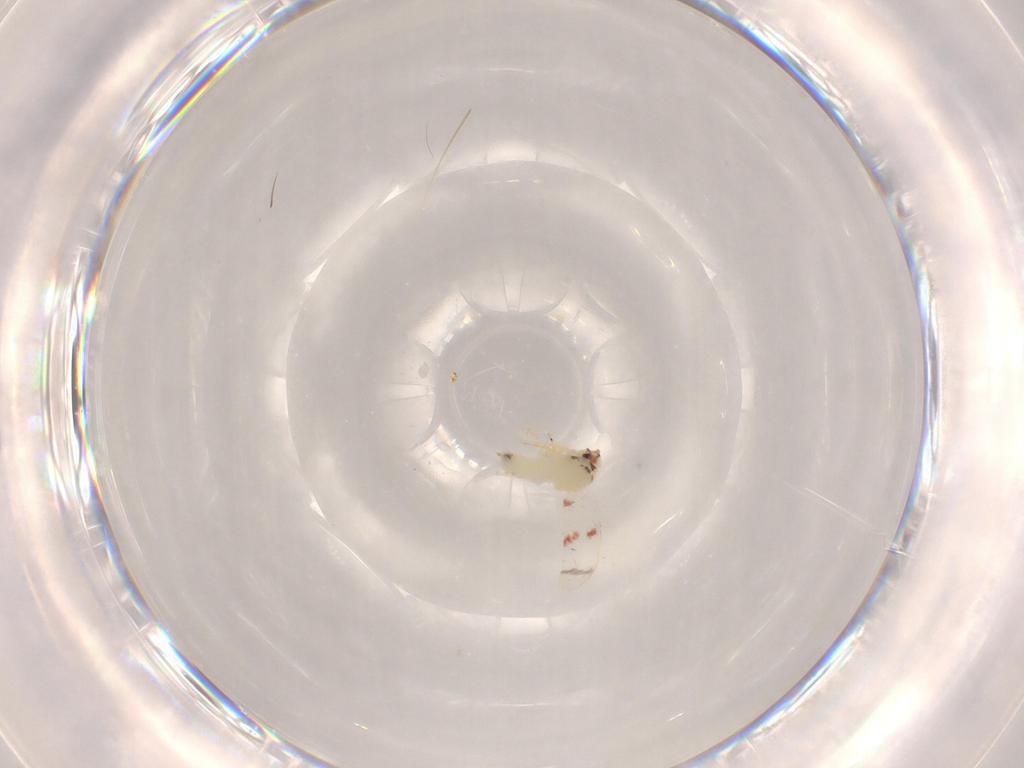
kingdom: Animalia
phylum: Arthropoda
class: Insecta
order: Hemiptera
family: Aleyrodidae
